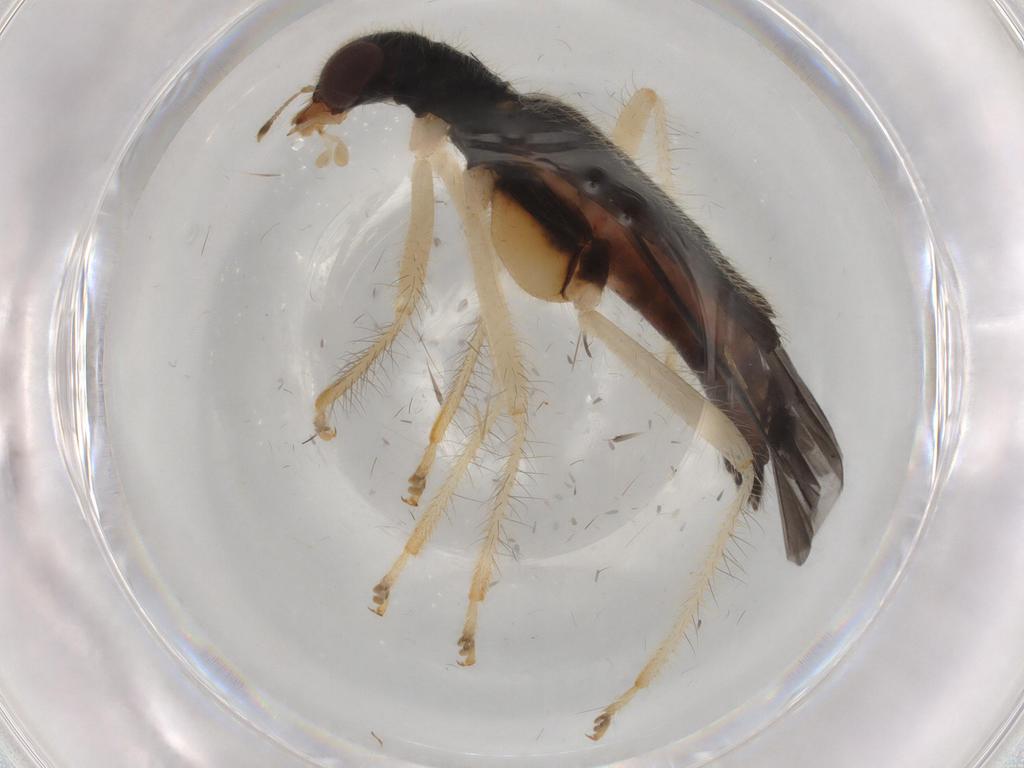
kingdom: Animalia
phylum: Arthropoda
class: Insecta
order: Coleoptera
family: Cleridae
